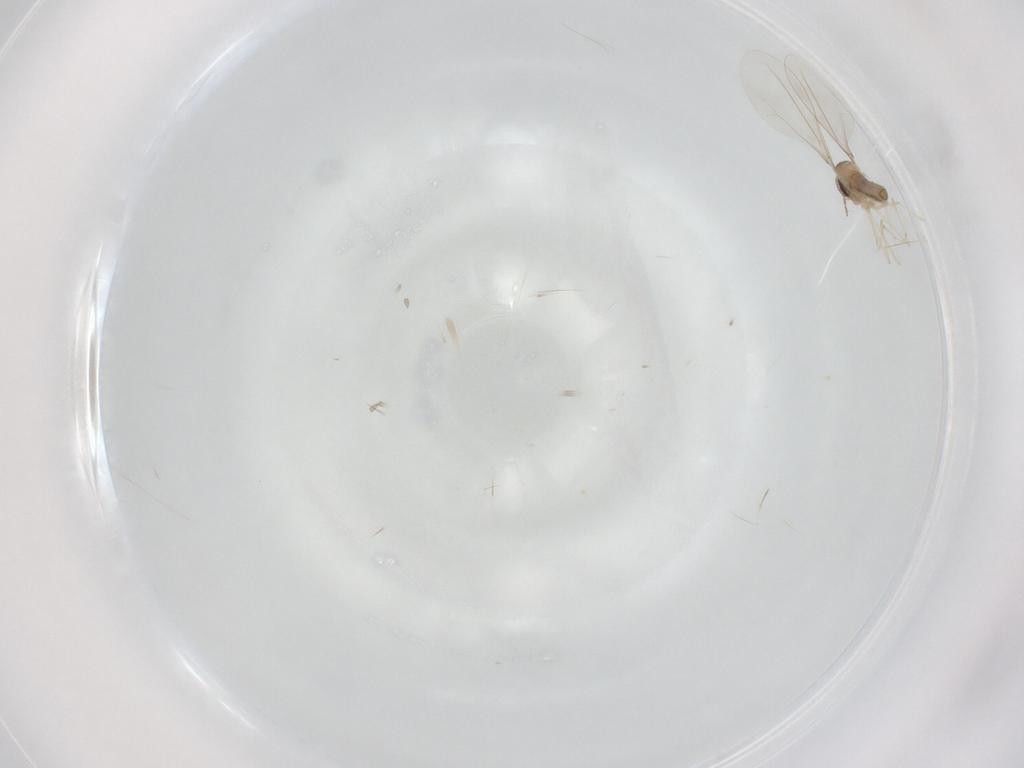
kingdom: Animalia
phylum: Arthropoda
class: Insecta
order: Diptera
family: Cecidomyiidae
